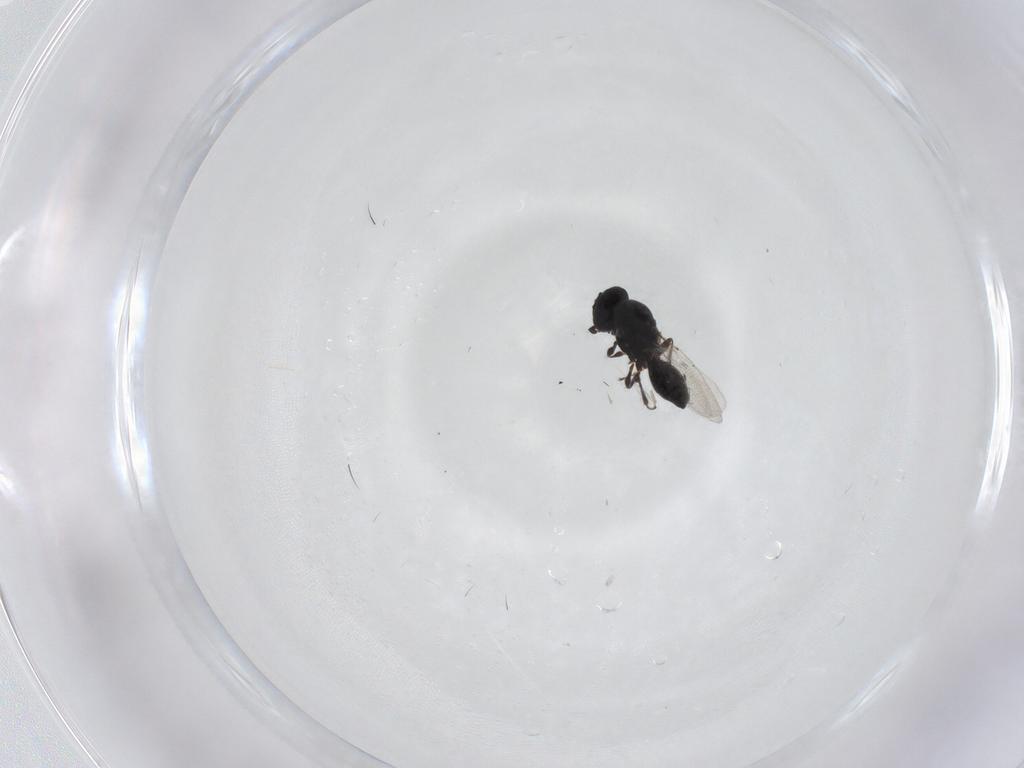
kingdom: Animalia
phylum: Arthropoda
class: Insecta
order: Hymenoptera
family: Platygastridae
